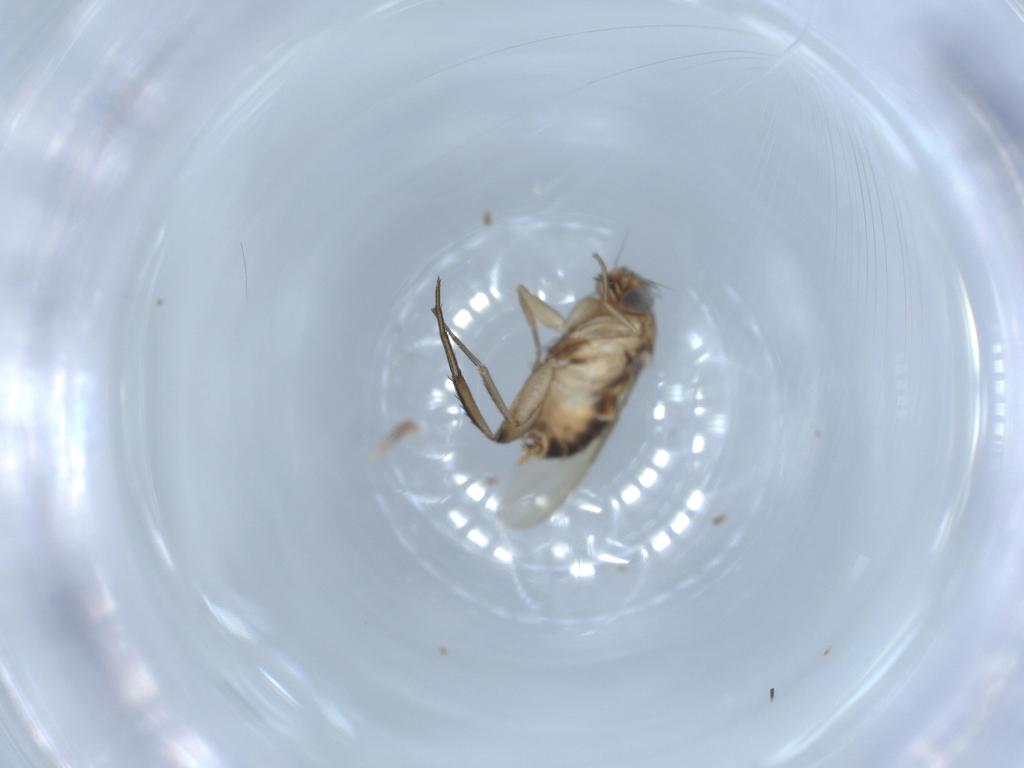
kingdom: Animalia
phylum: Arthropoda
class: Insecta
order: Diptera
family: Phoridae
